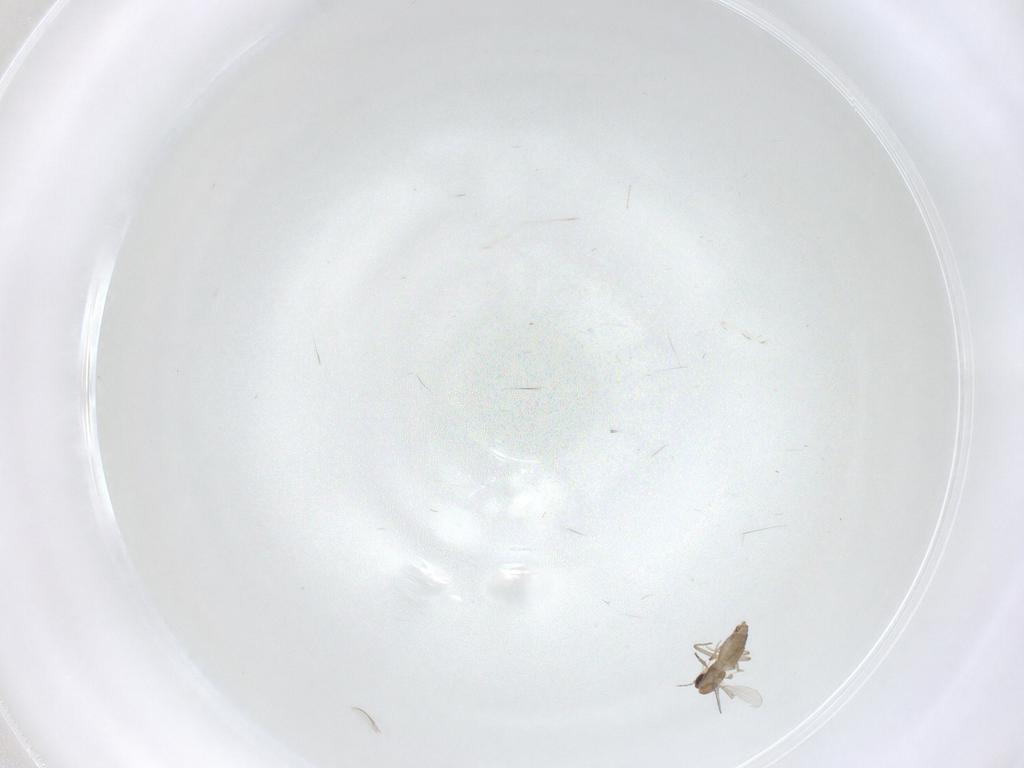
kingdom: Animalia
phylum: Arthropoda
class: Insecta
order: Diptera
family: Chironomidae
